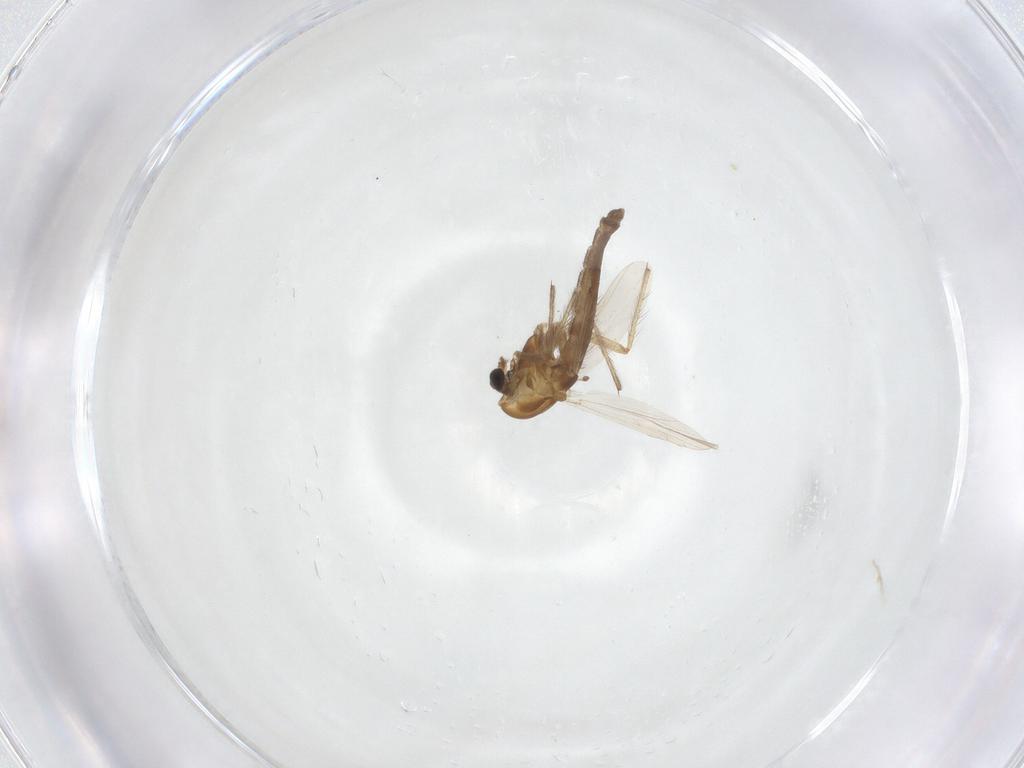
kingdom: Animalia
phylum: Arthropoda
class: Insecta
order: Diptera
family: Chironomidae
